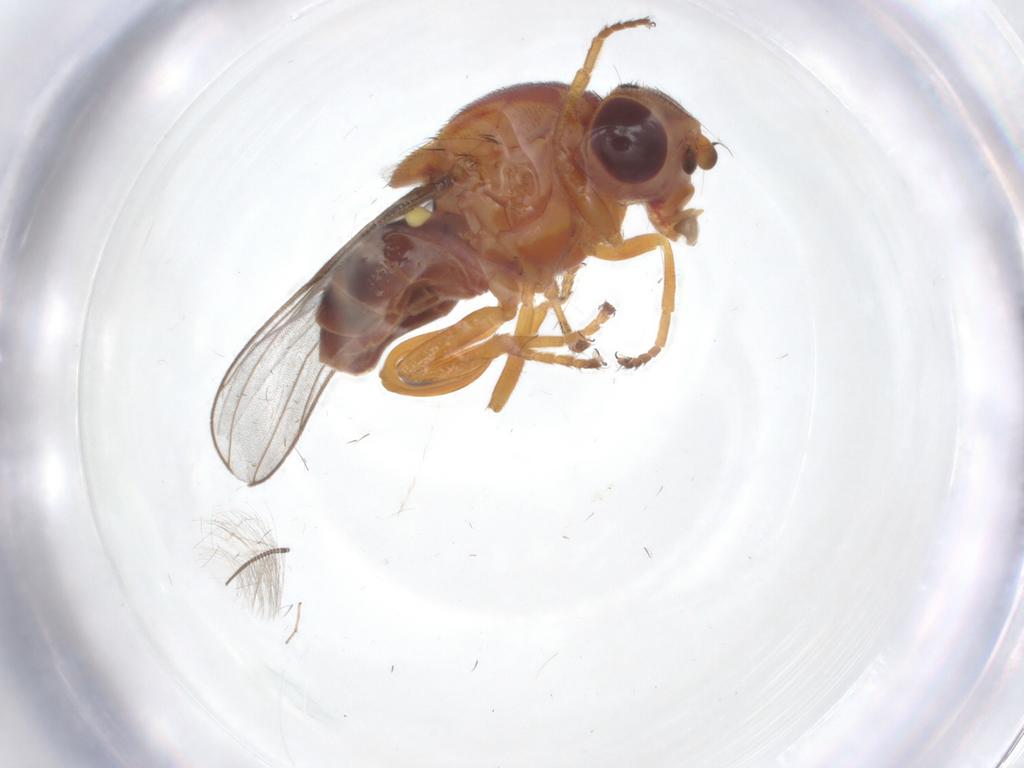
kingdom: Animalia
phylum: Arthropoda
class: Insecta
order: Diptera
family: Chloropidae
